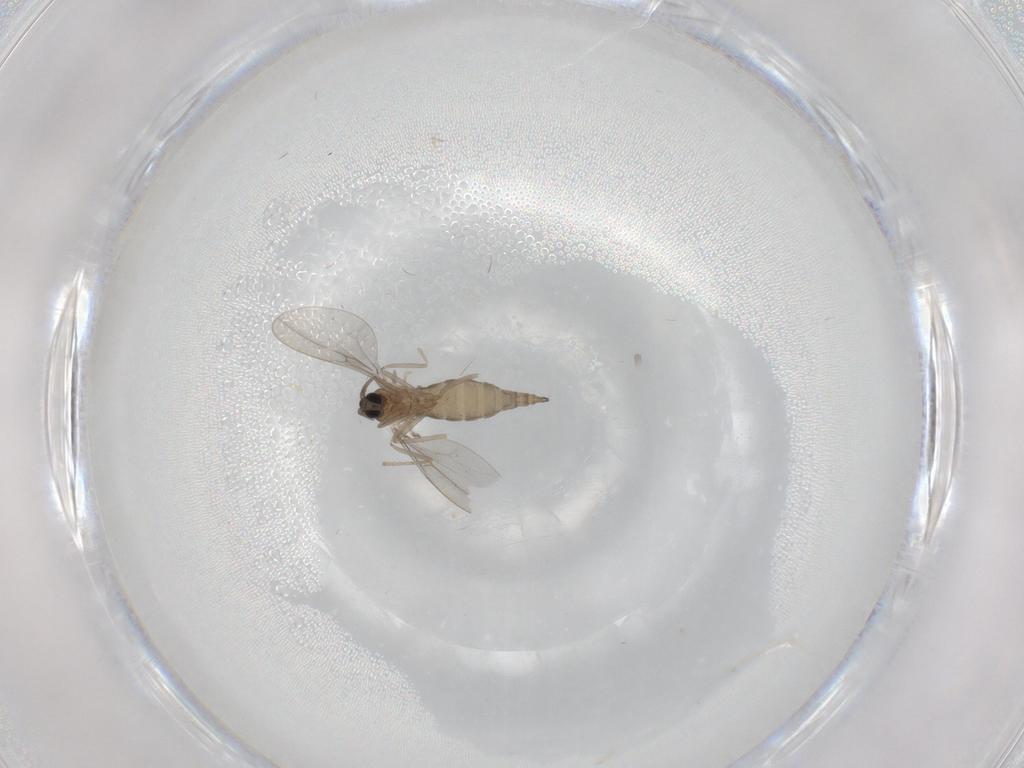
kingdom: Animalia
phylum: Arthropoda
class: Insecta
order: Diptera
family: Cecidomyiidae
